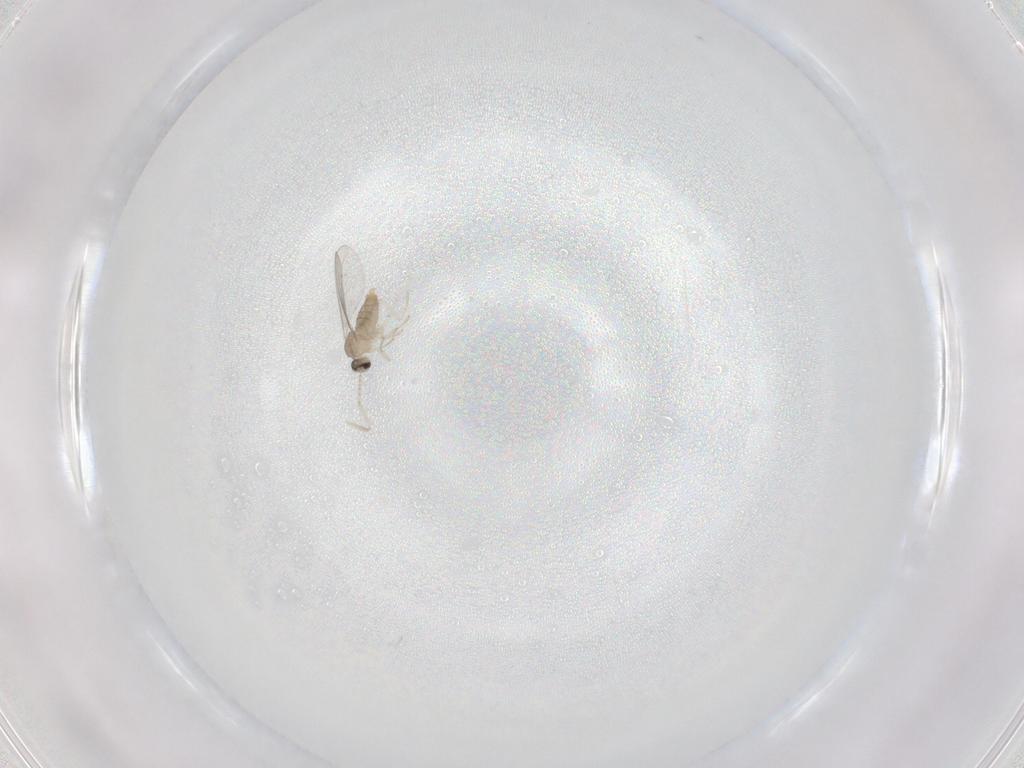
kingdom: Animalia
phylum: Arthropoda
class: Insecta
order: Diptera
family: Cecidomyiidae
